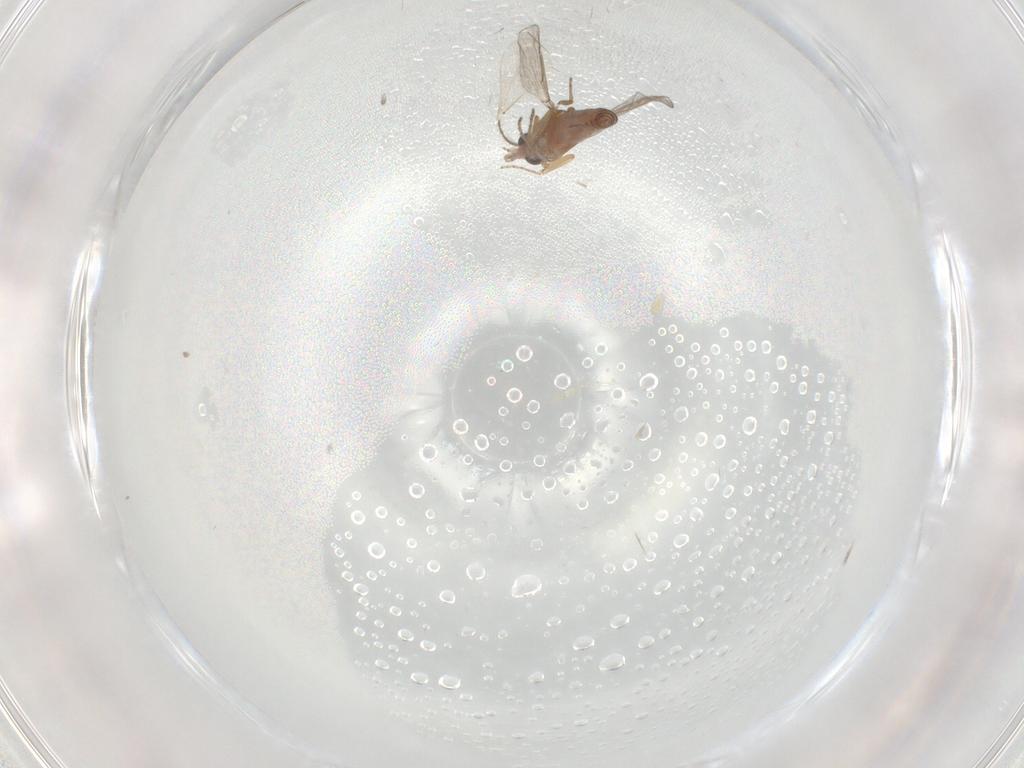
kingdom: Animalia
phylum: Arthropoda
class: Insecta
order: Diptera
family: Ceratopogonidae
